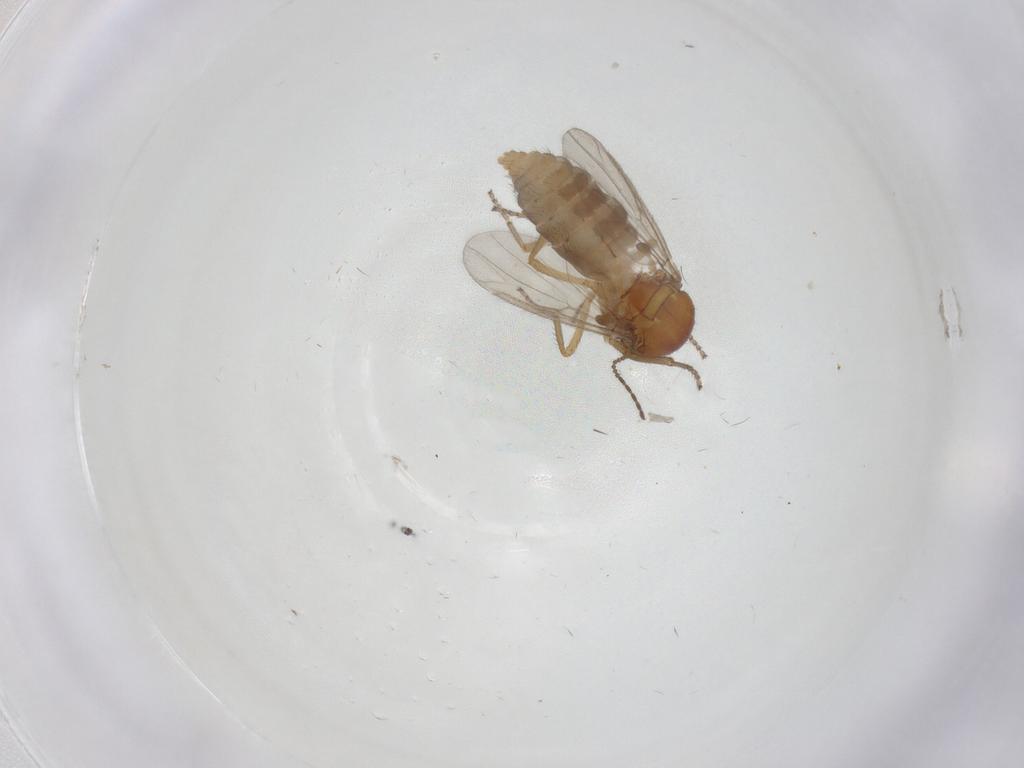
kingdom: Animalia
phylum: Arthropoda
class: Insecta
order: Diptera
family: Ceratopogonidae
